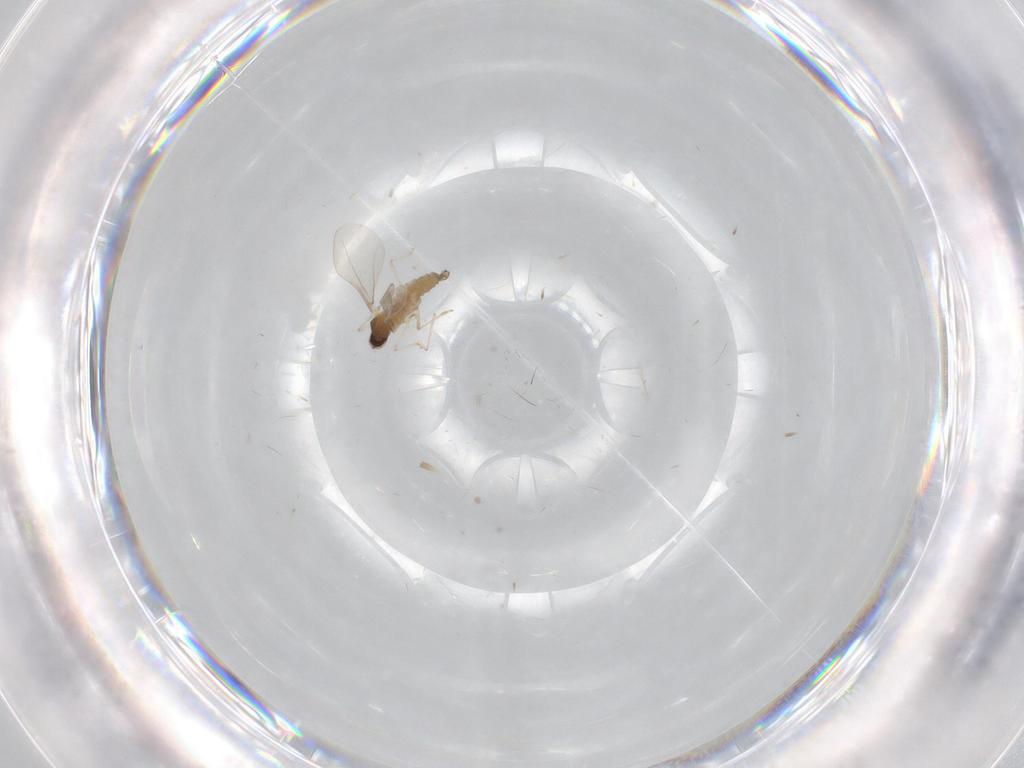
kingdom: Animalia
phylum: Arthropoda
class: Insecta
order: Diptera
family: Cecidomyiidae
